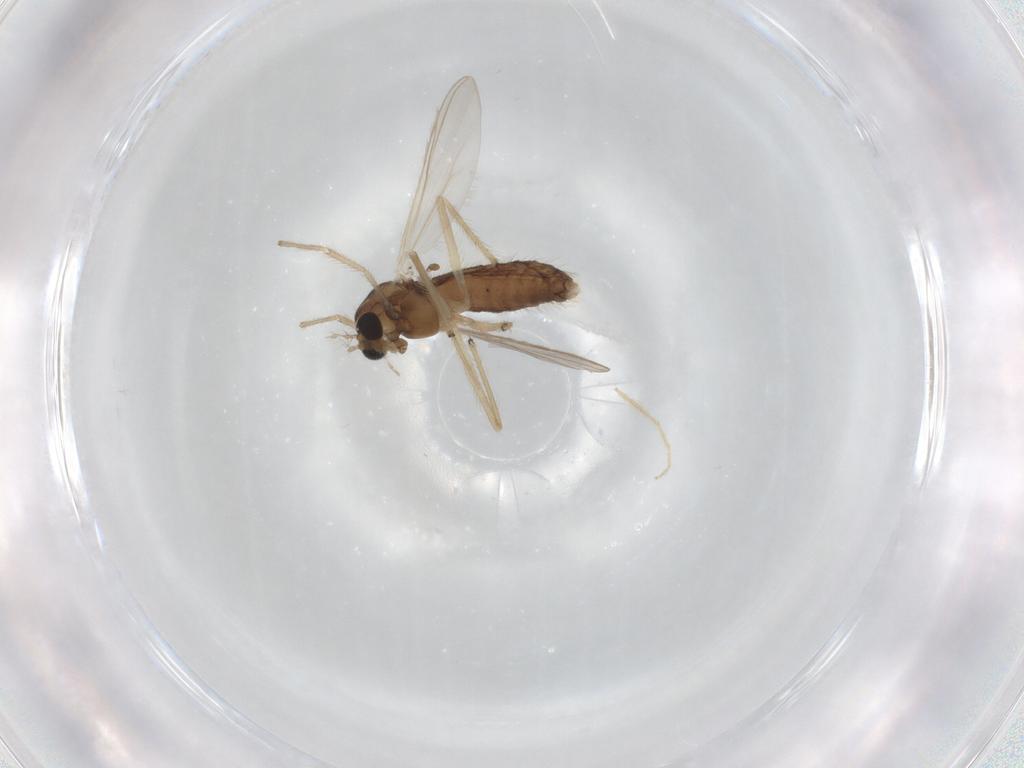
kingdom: Animalia
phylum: Arthropoda
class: Insecta
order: Diptera
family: Chironomidae
